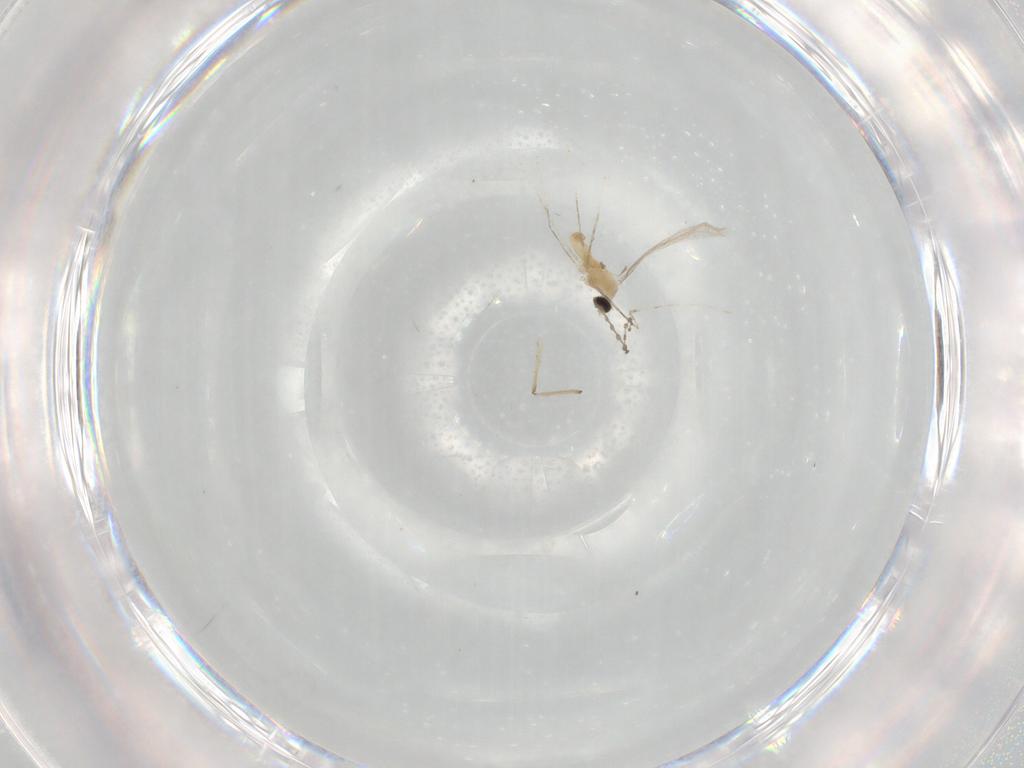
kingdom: Animalia
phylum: Arthropoda
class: Insecta
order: Diptera
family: Cecidomyiidae
